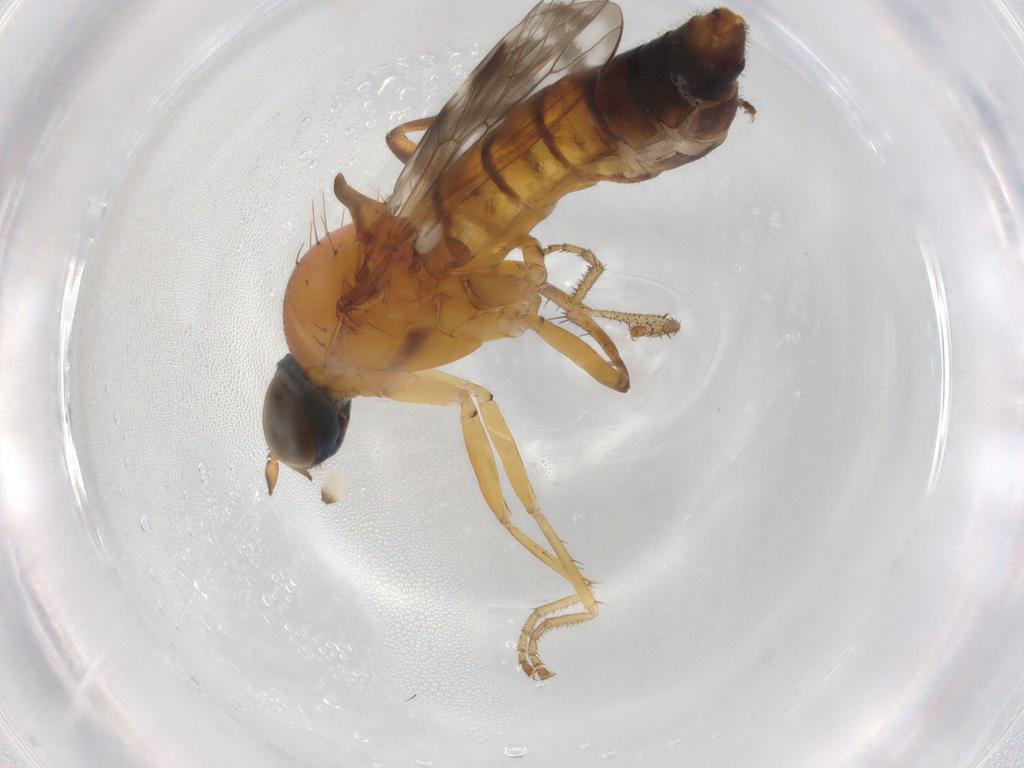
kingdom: Animalia
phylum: Arthropoda
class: Insecta
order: Diptera
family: Therevidae
